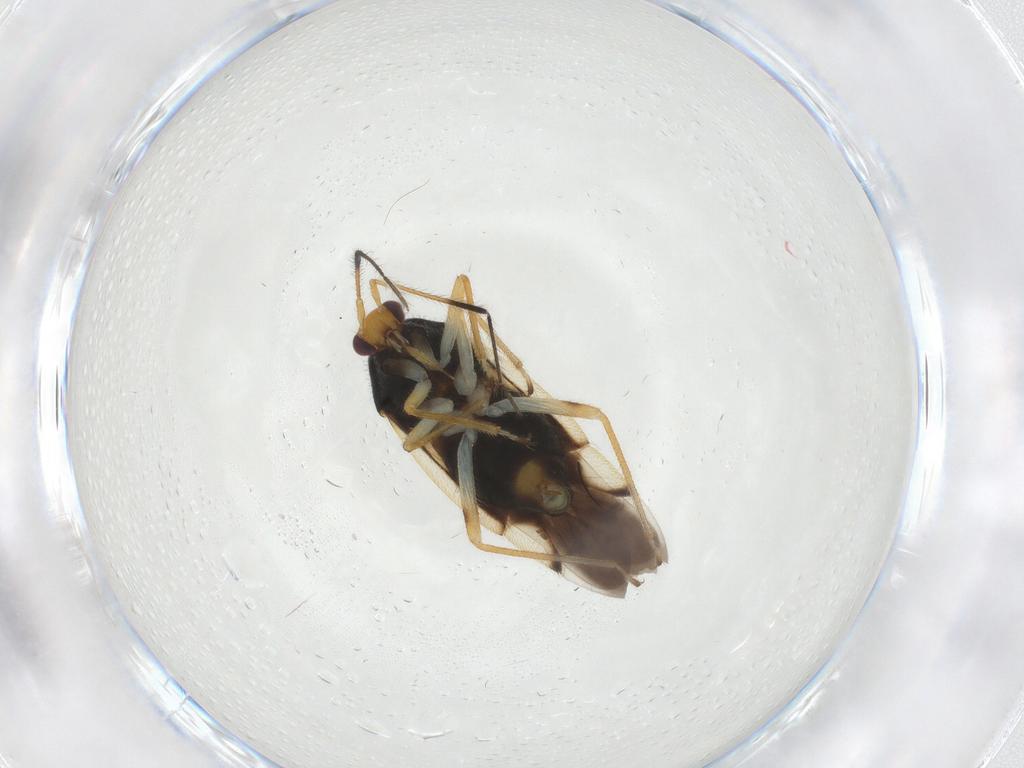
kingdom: Animalia
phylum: Arthropoda
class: Insecta
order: Hemiptera
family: Miridae
